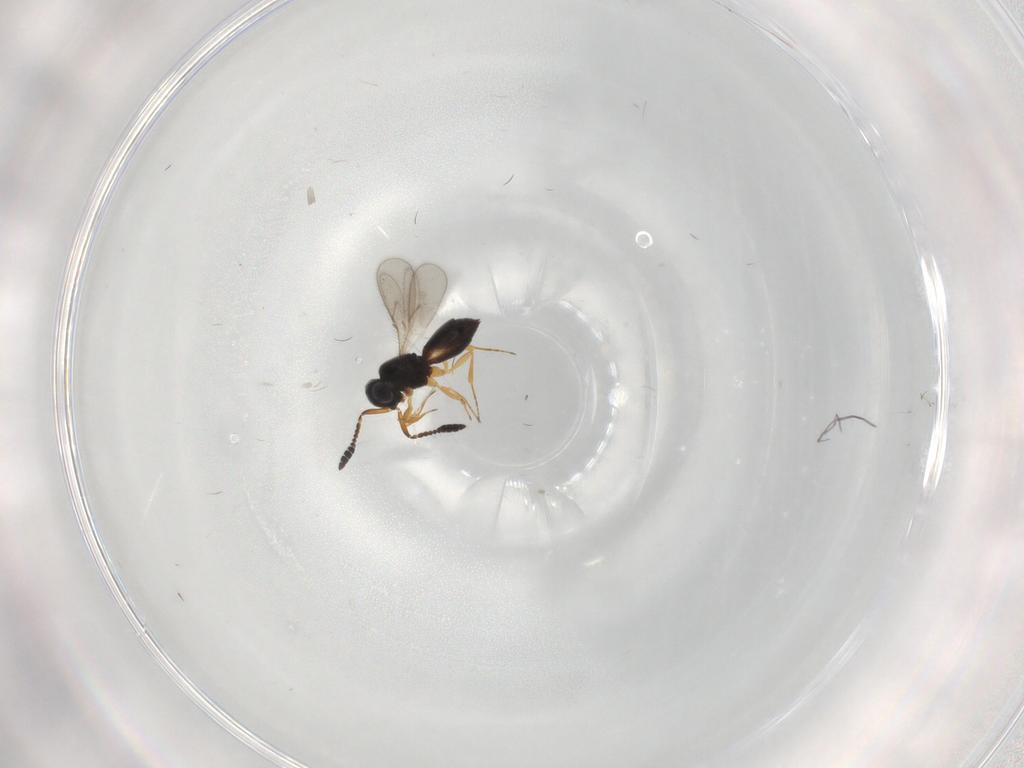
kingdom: Animalia
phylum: Arthropoda
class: Insecta
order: Hymenoptera
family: Scelionidae
